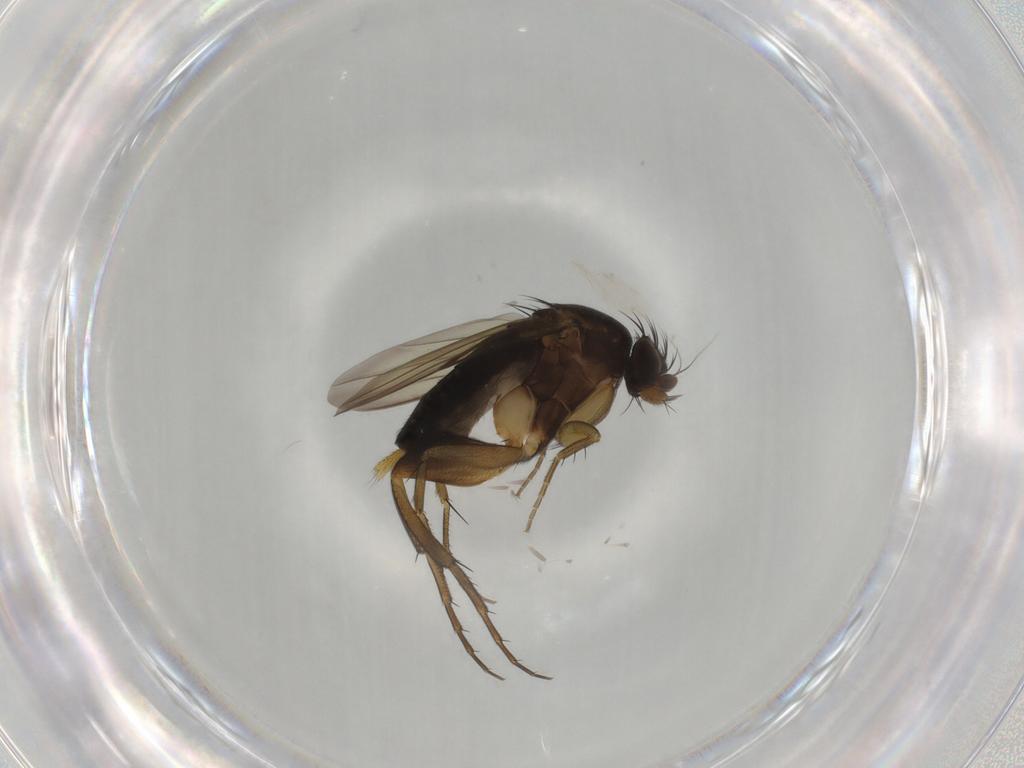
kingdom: Animalia
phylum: Arthropoda
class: Insecta
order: Diptera
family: Phoridae
